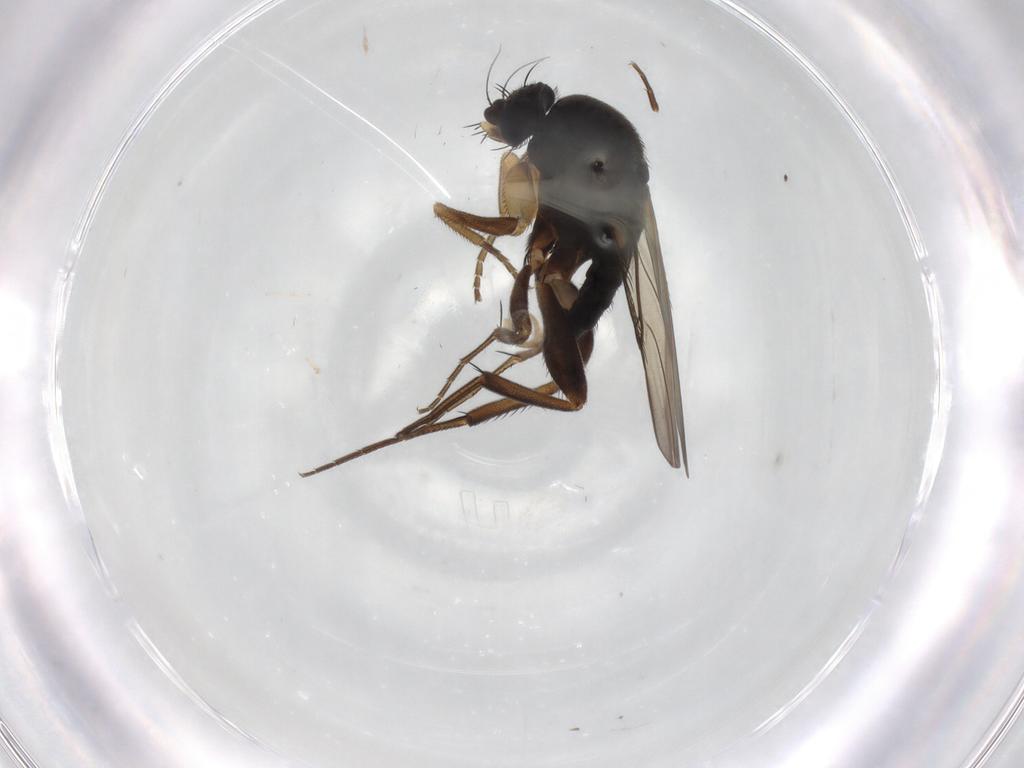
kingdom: Animalia
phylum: Arthropoda
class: Insecta
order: Diptera
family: Phoridae
